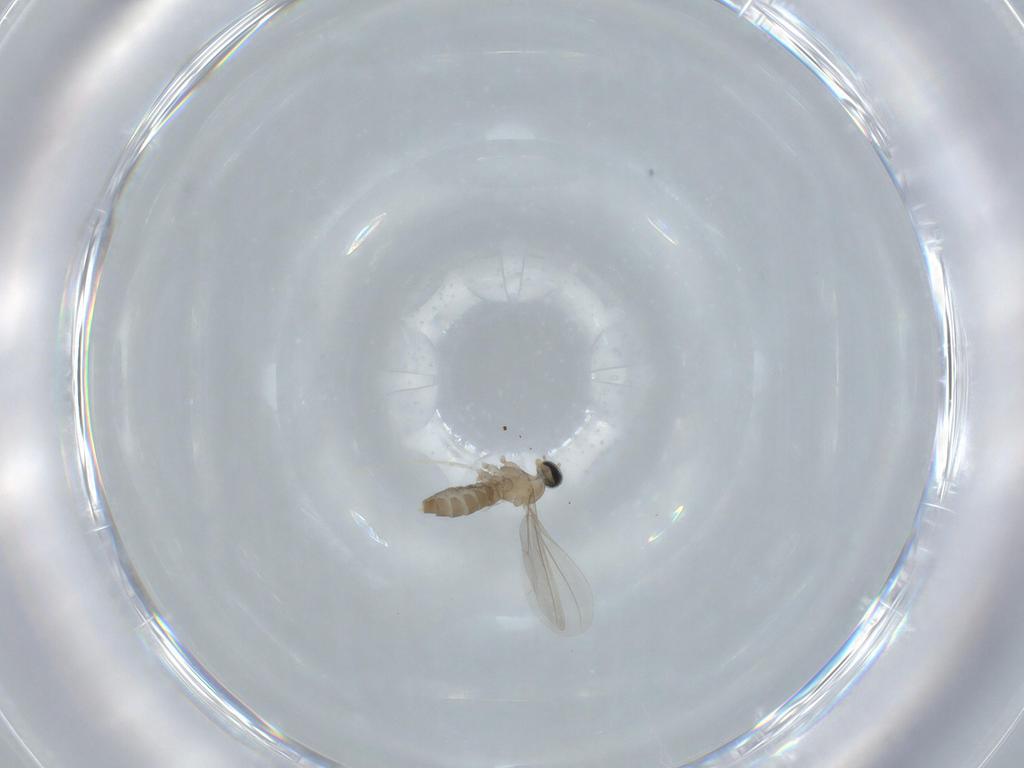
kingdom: Animalia
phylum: Arthropoda
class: Insecta
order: Diptera
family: Cecidomyiidae
